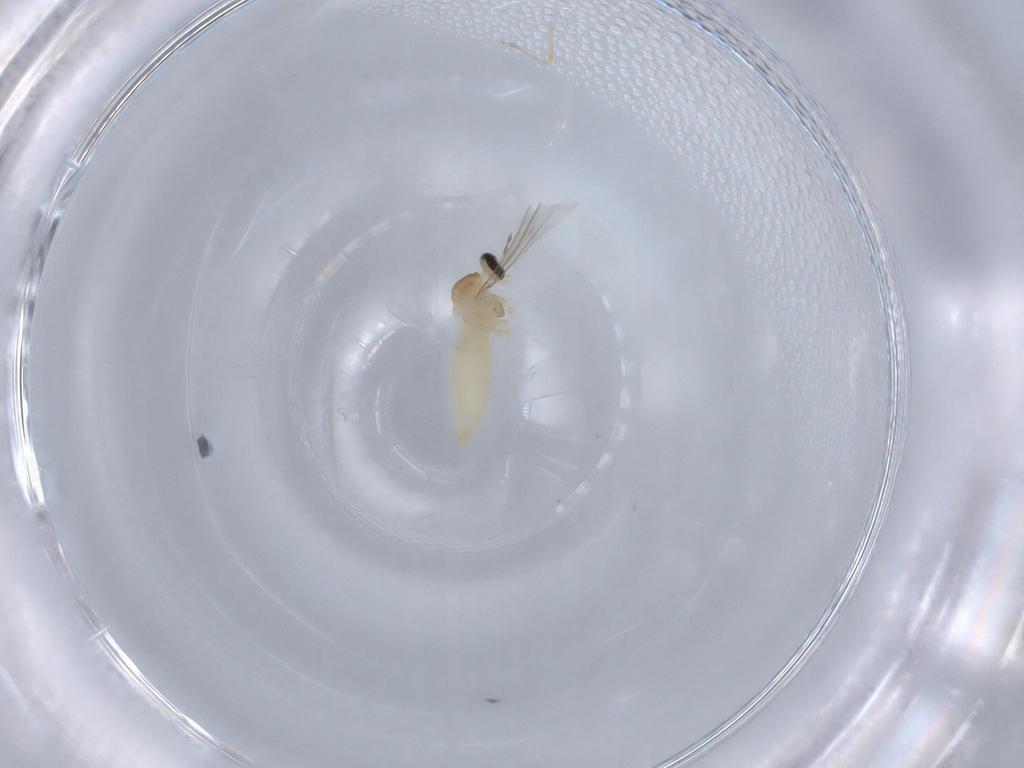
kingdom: Animalia
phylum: Arthropoda
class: Insecta
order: Diptera
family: Cecidomyiidae
